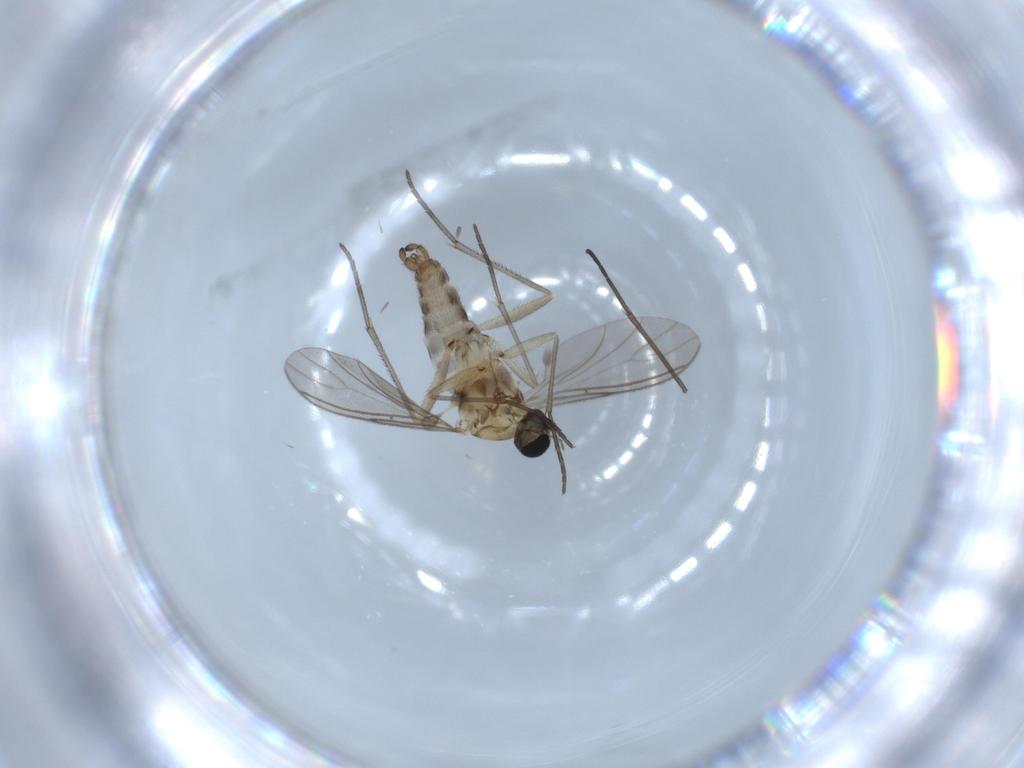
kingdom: Animalia
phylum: Arthropoda
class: Insecta
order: Diptera
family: Sciaridae
